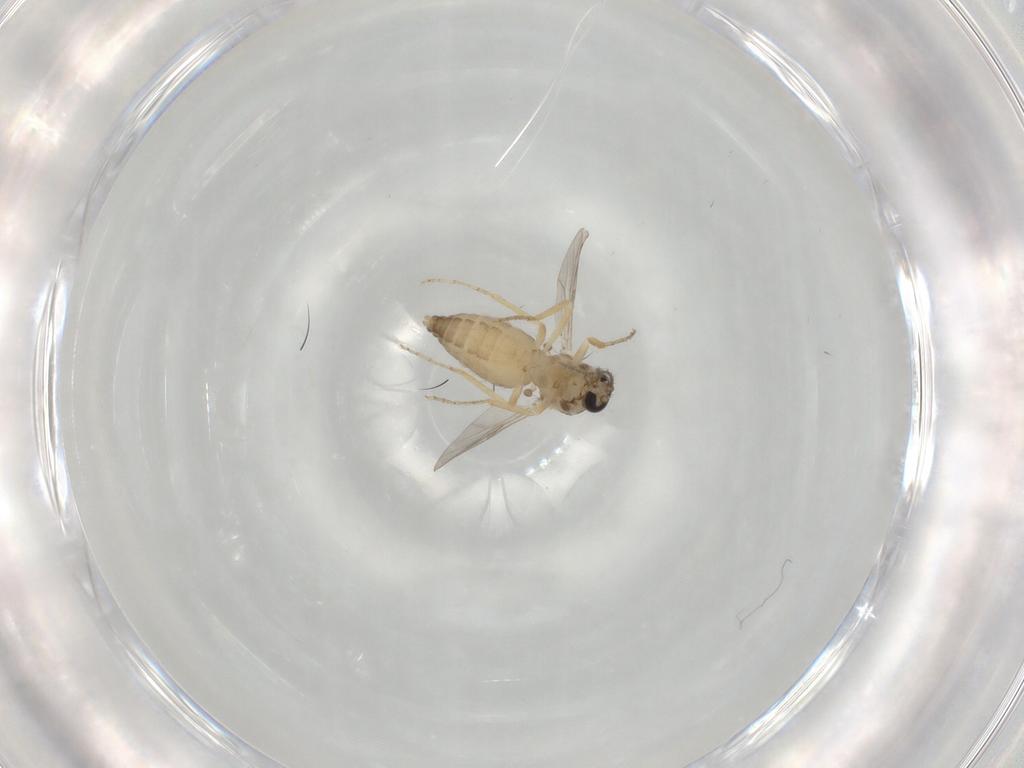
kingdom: Animalia
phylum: Arthropoda
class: Insecta
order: Diptera
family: Ceratopogonidae
